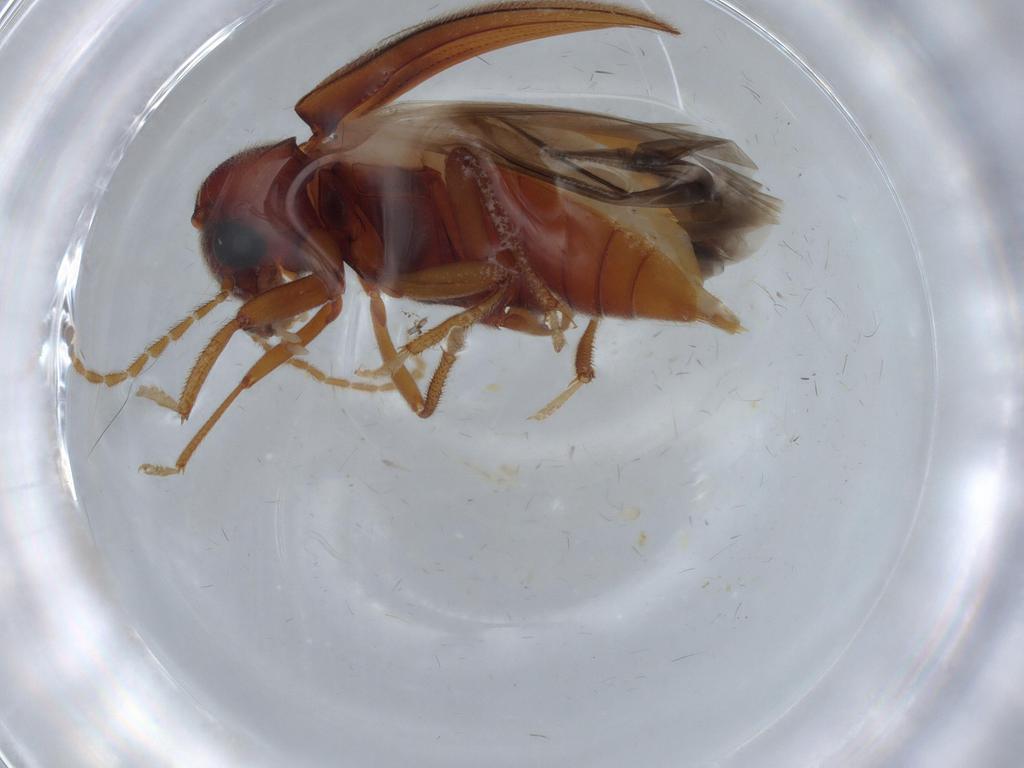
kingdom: Animalia
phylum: Arthropoda
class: Insecta
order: Coleoptera
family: Ptilodactylidae
